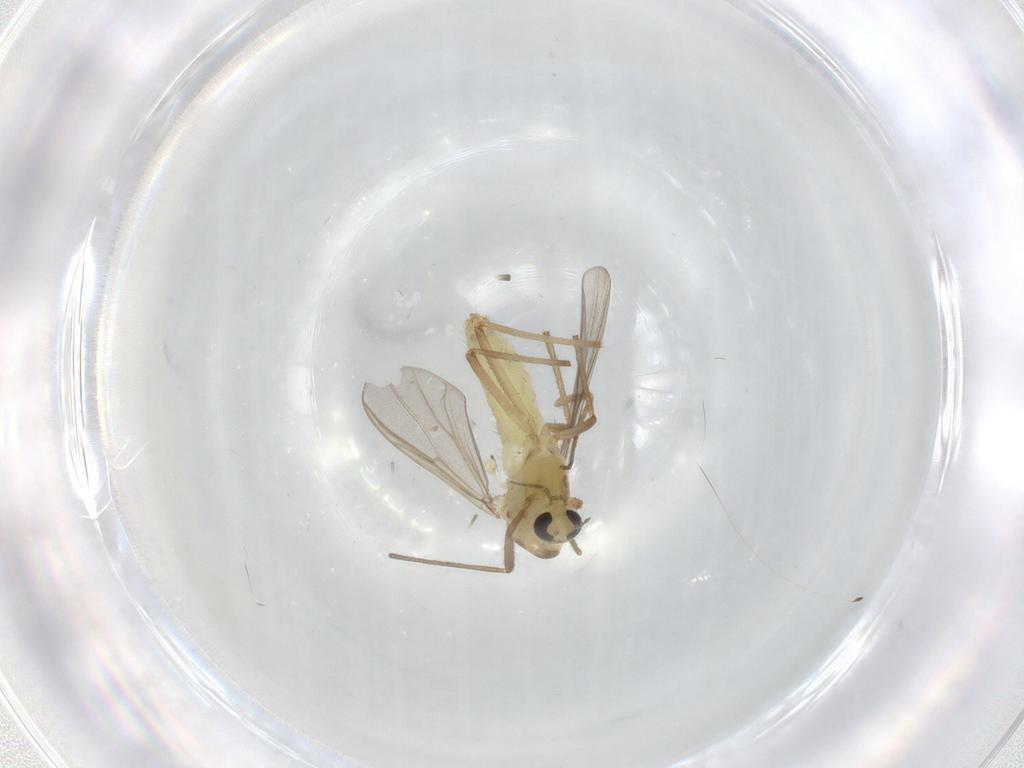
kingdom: Animalia
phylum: Arthropoda
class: Insecta
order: Diptera
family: Chironomidae
